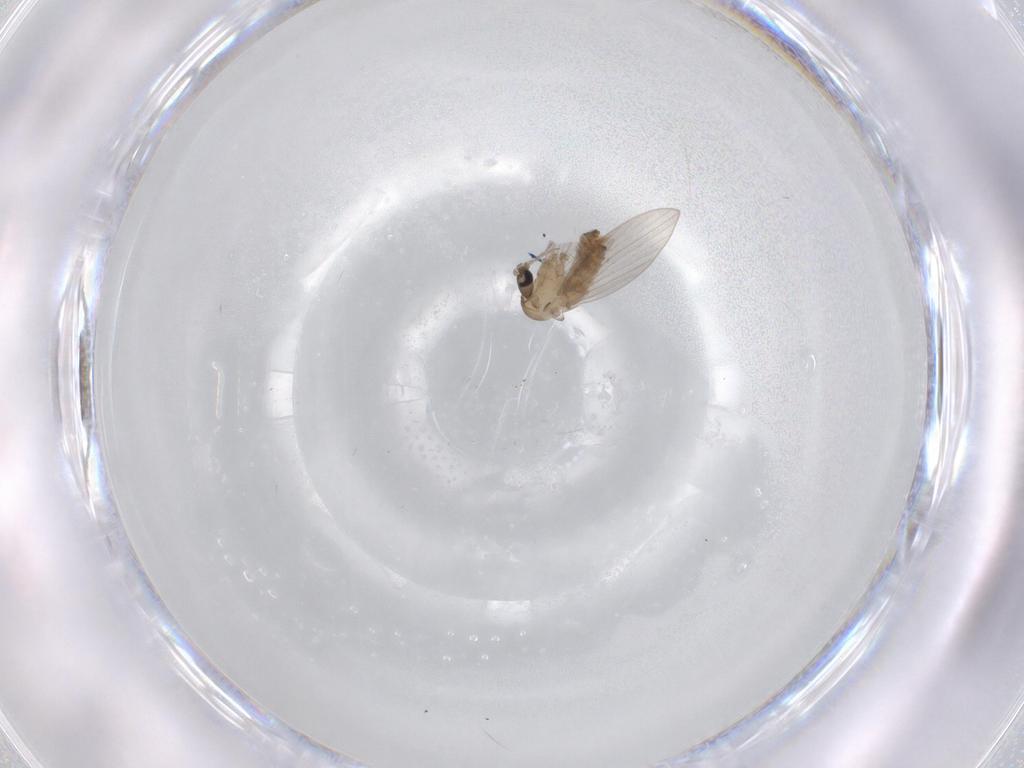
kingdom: Animalia
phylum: Arthropoda
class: Insecta
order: Diptera
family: Psychodidae
